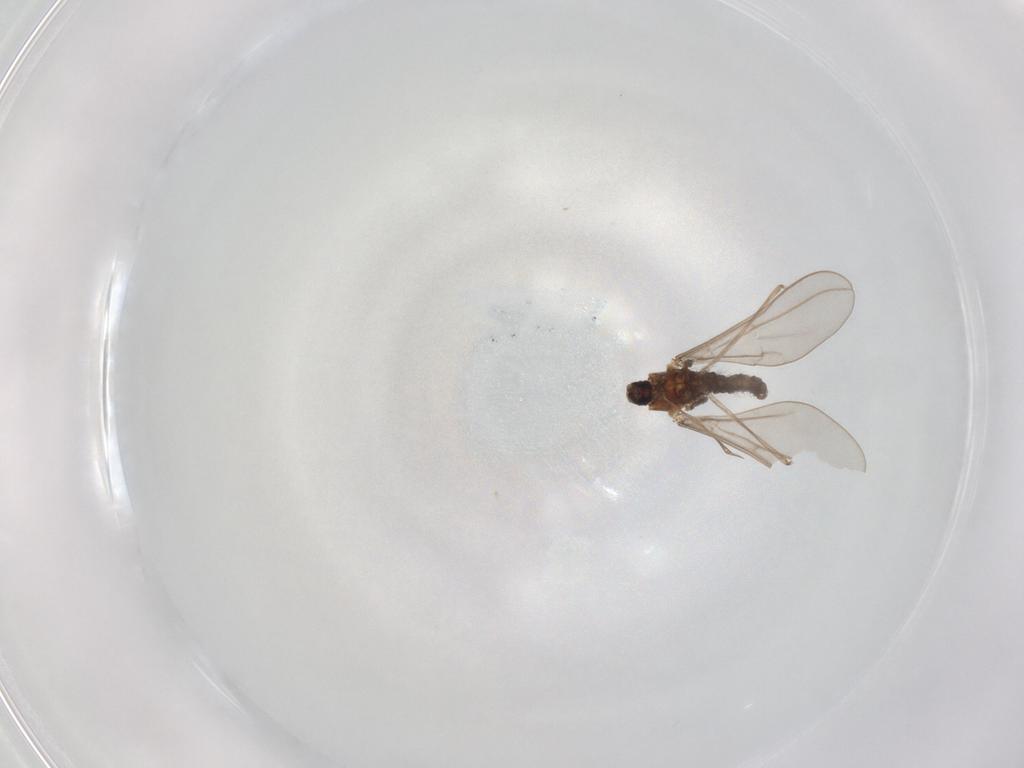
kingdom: Animalia
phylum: Arthropoda
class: Insecta
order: Diptera
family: Cecidomyiidae
